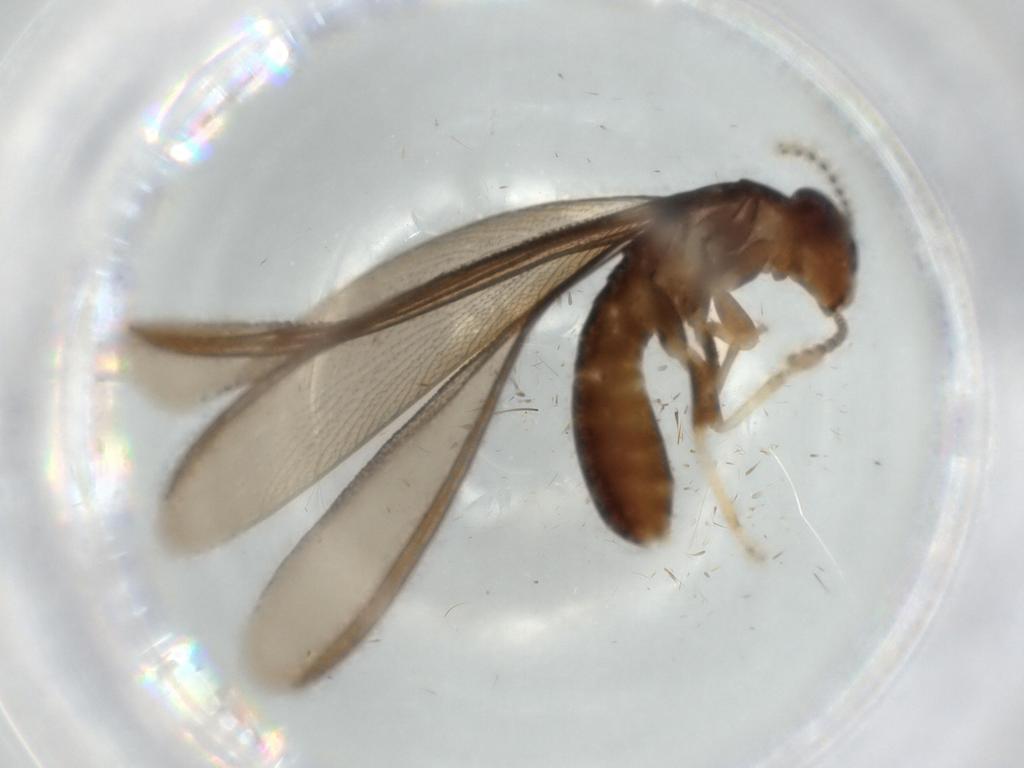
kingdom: Animalia
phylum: Arthropoda
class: Insecta
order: Blattodea
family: Kalotermitidae
